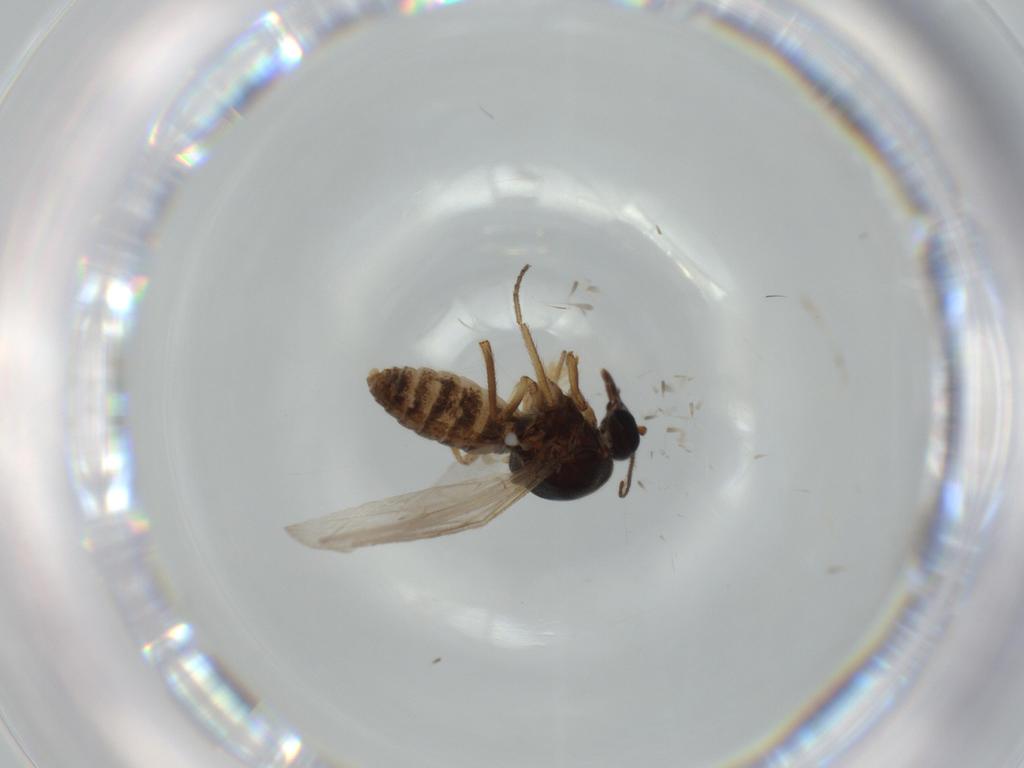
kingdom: Animalia
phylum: Arthropoda
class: Insecta
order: Diptera
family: Ceratopogonidae
